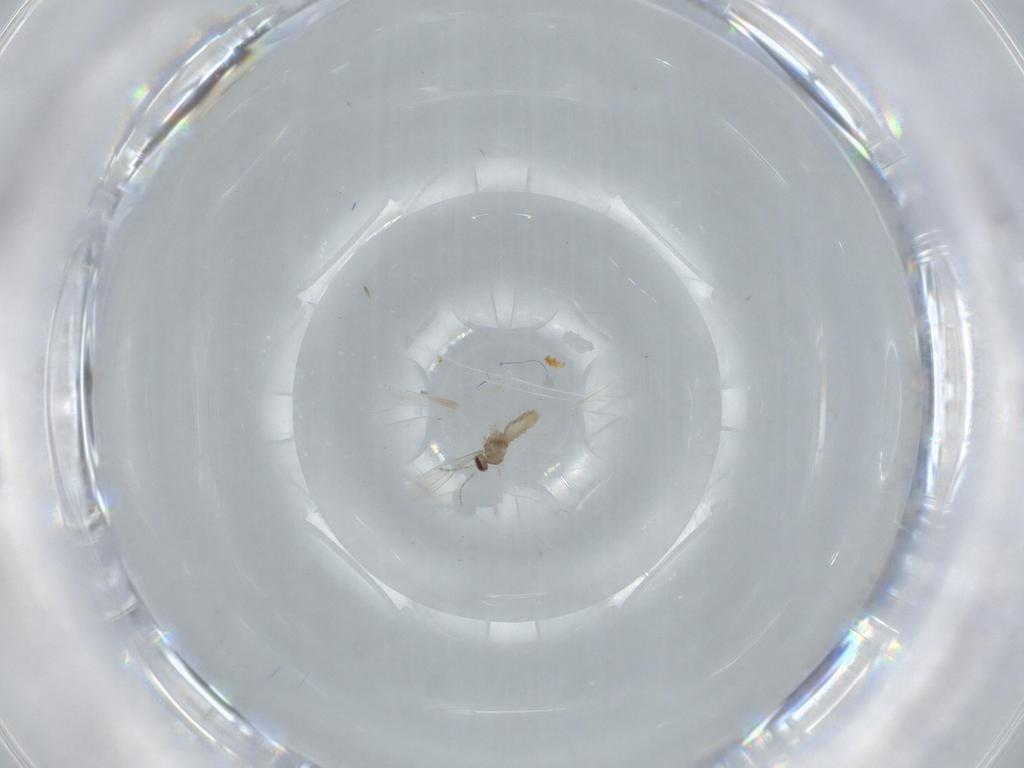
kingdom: Animalia
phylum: Arthropoda
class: Insecta
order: Diptera
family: Cecidomyiidae
